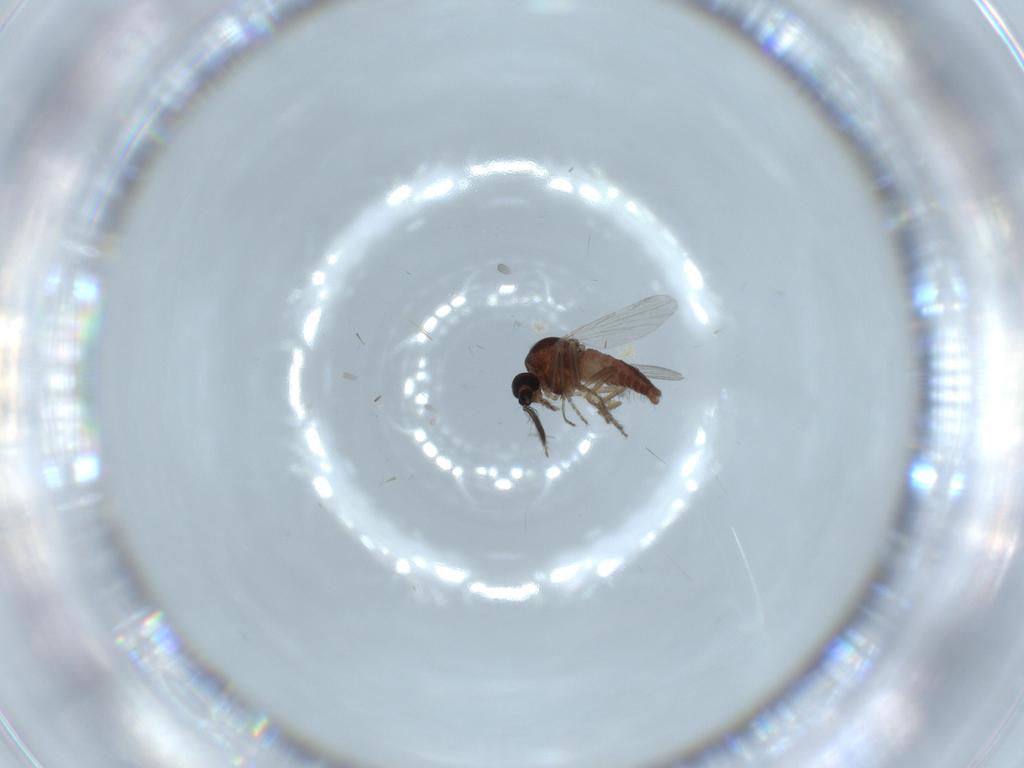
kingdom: Animalia
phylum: Arthropoda
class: Insecta
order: Diptera
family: Ceratopogonidae
